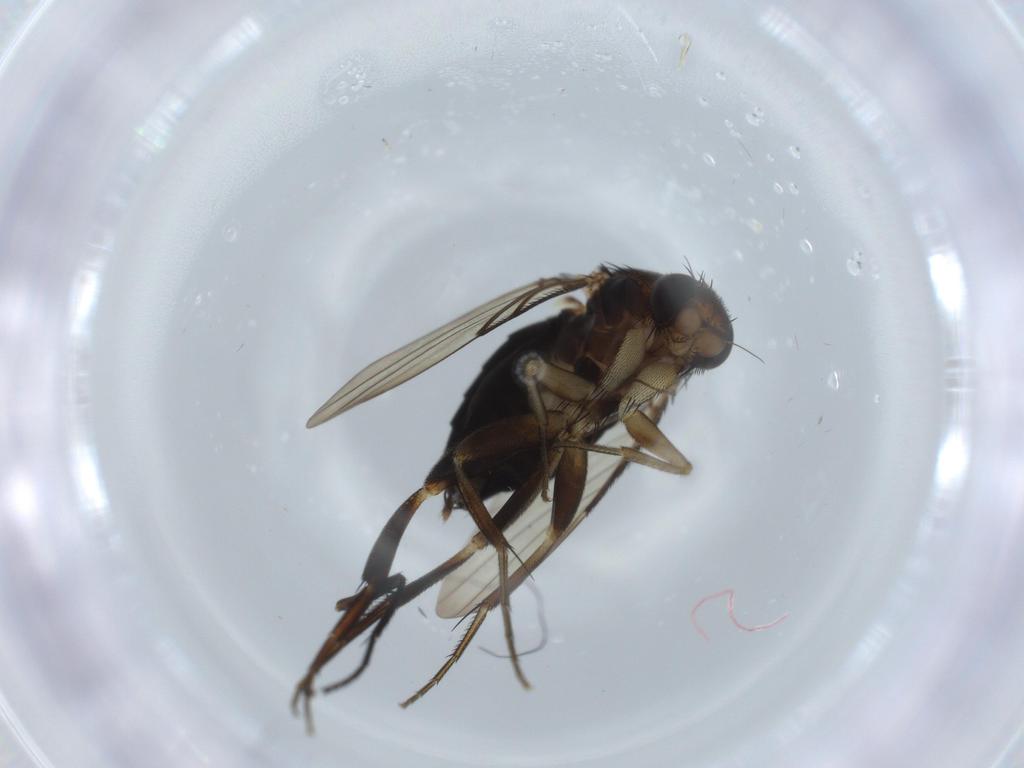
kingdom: Animalia
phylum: Arthropoda
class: Insecta
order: Diptera
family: Phoridae
